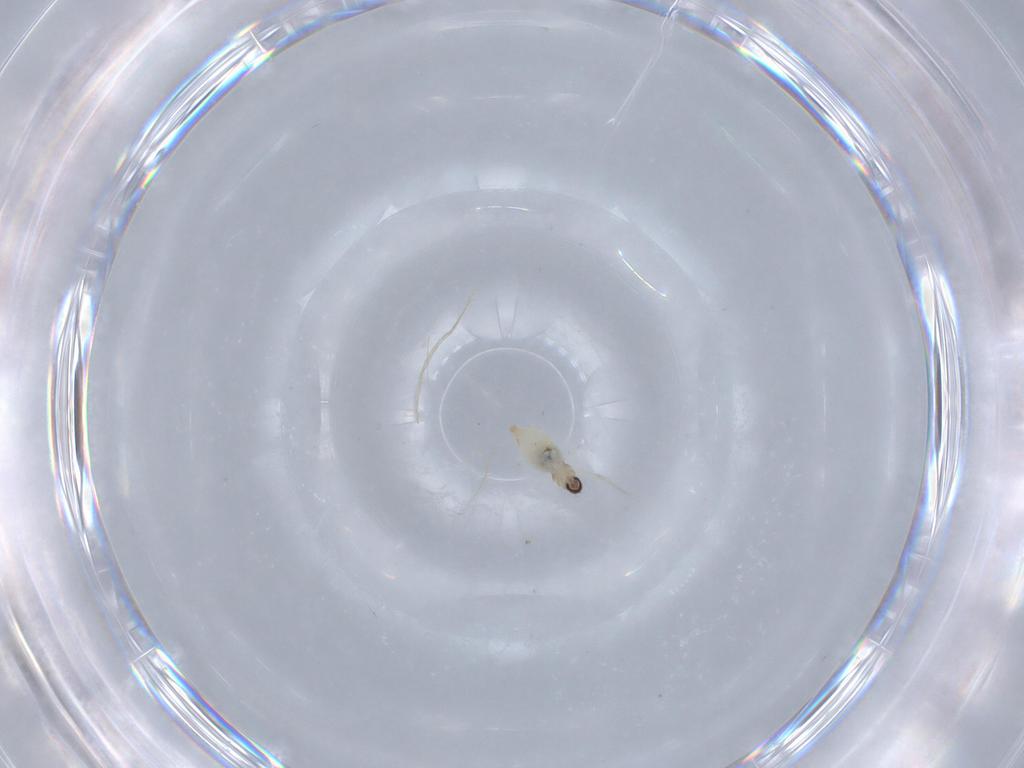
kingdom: Animalia
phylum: Arthropoda
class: Insecta
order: Diptera
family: Cecidomyiidae
